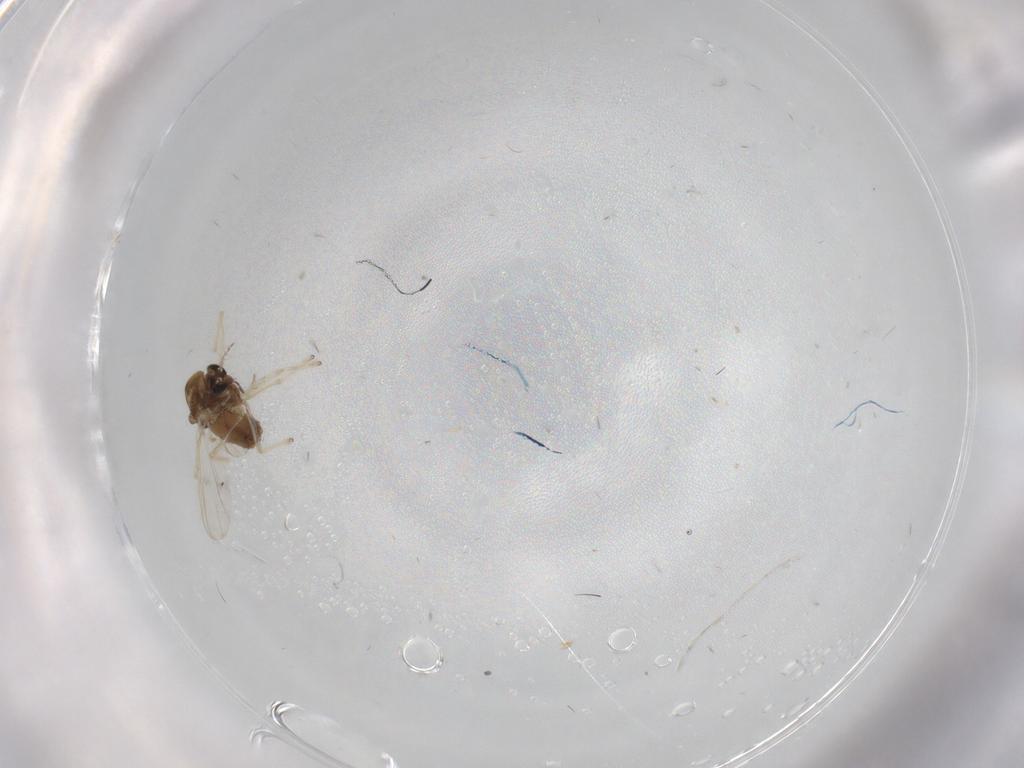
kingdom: Animalia
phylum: Arthropoda
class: Insecta
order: Diptera
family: Chironomidae
